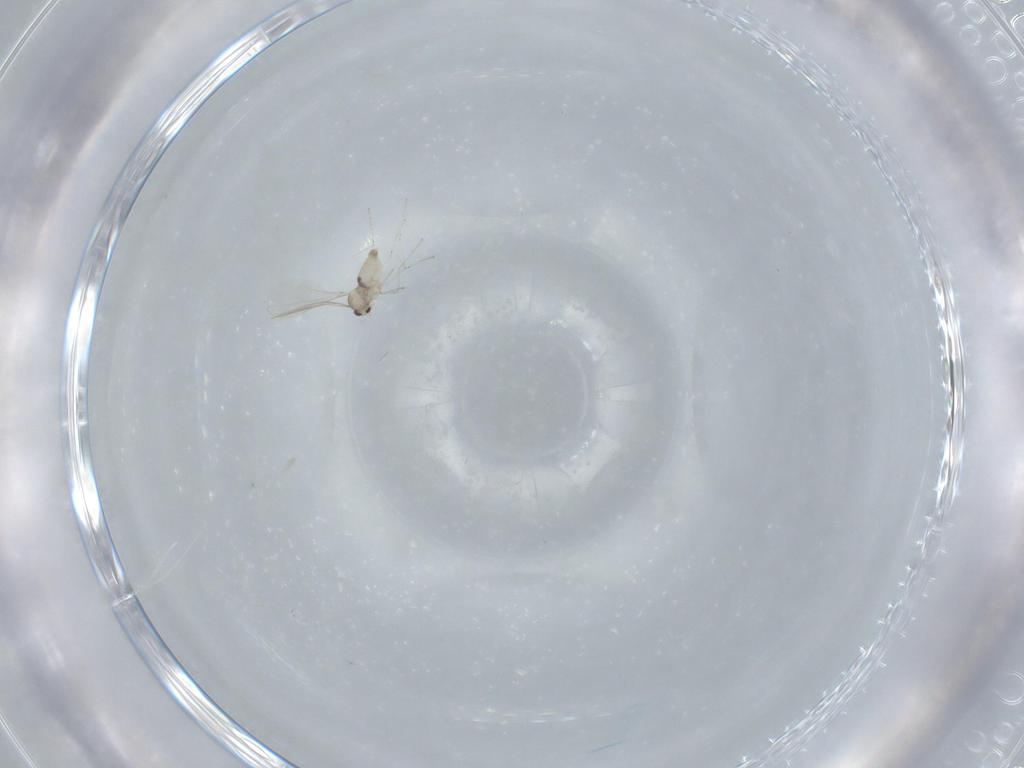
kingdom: Animalia
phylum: Arthropoda
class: Insecta
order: Diptera
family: Cecidomyiidae
